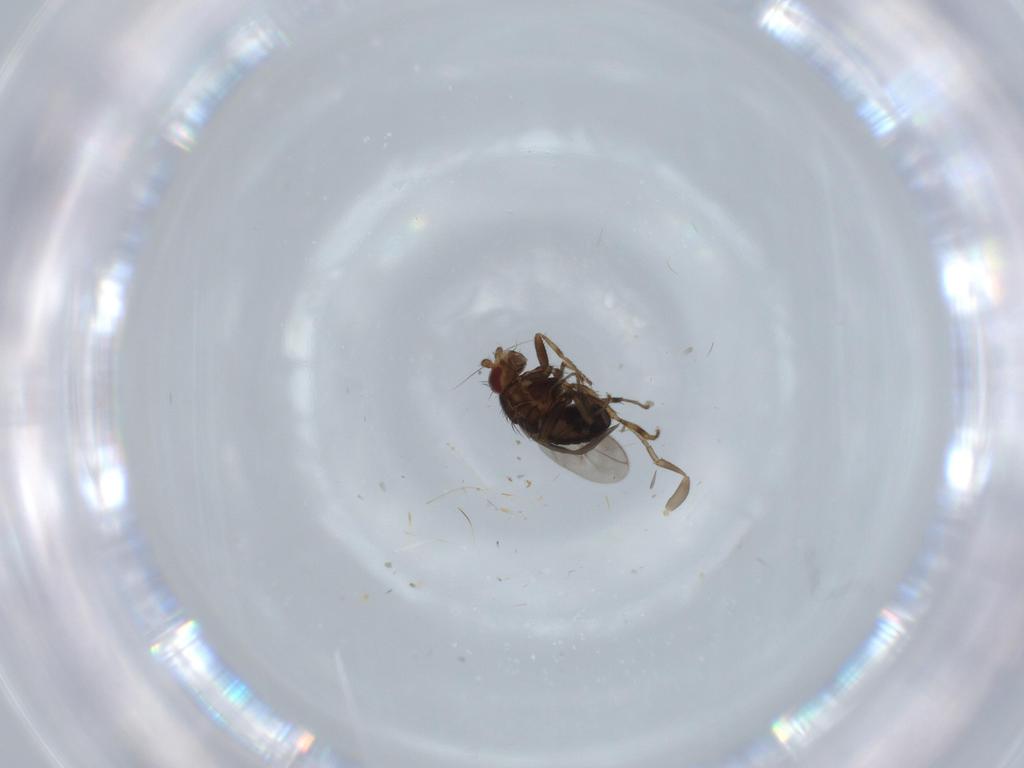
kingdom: Animalia
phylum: Arthropoda
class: Insecta
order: Diptera
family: Sphaeroceridae
